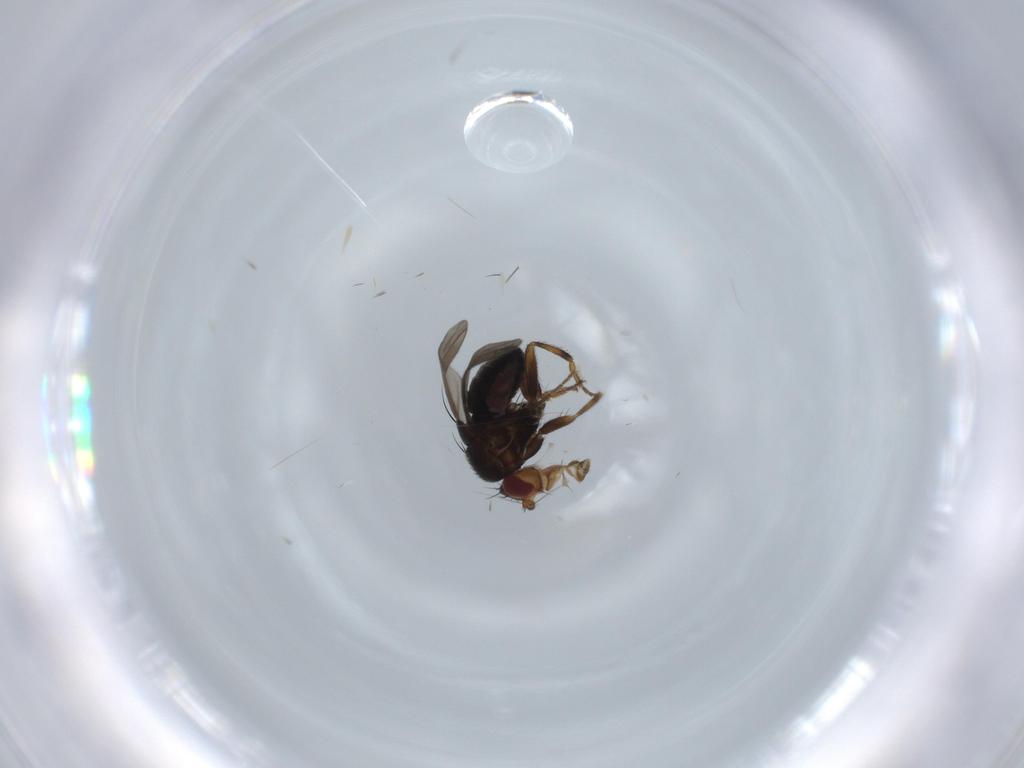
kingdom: Animalia
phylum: Arthropoda
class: Insecta
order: Diptera
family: Sphaeroceridae
